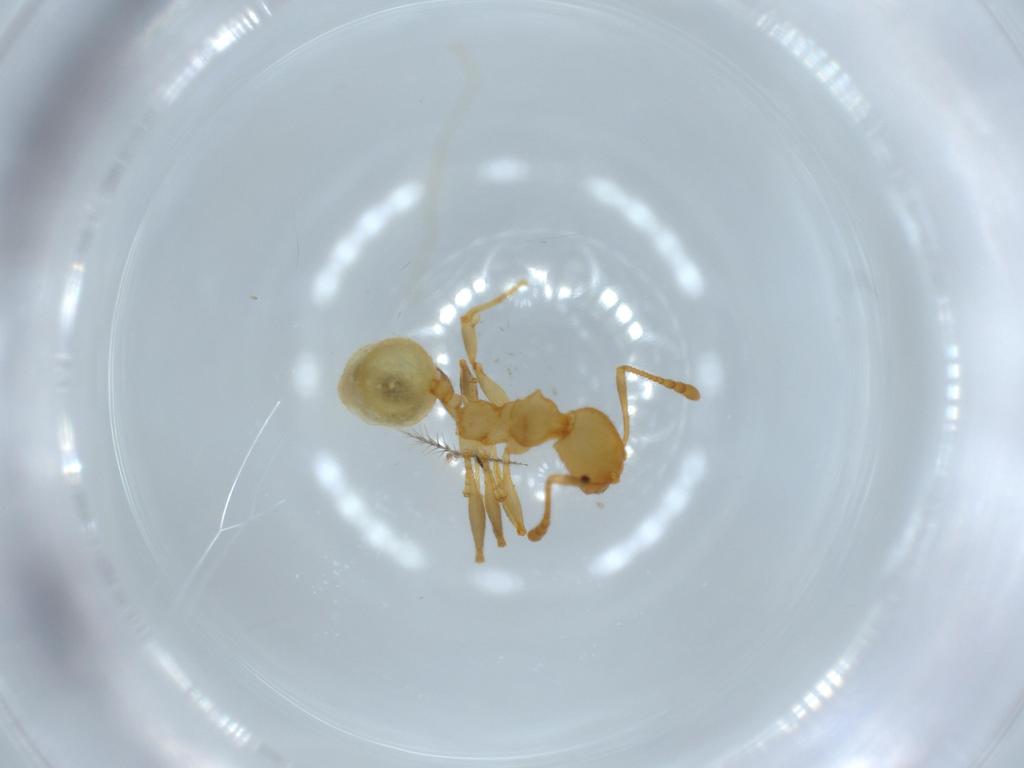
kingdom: Animalia
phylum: Arthropoda
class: Insecta
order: Hymenoptera
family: Formicidae
